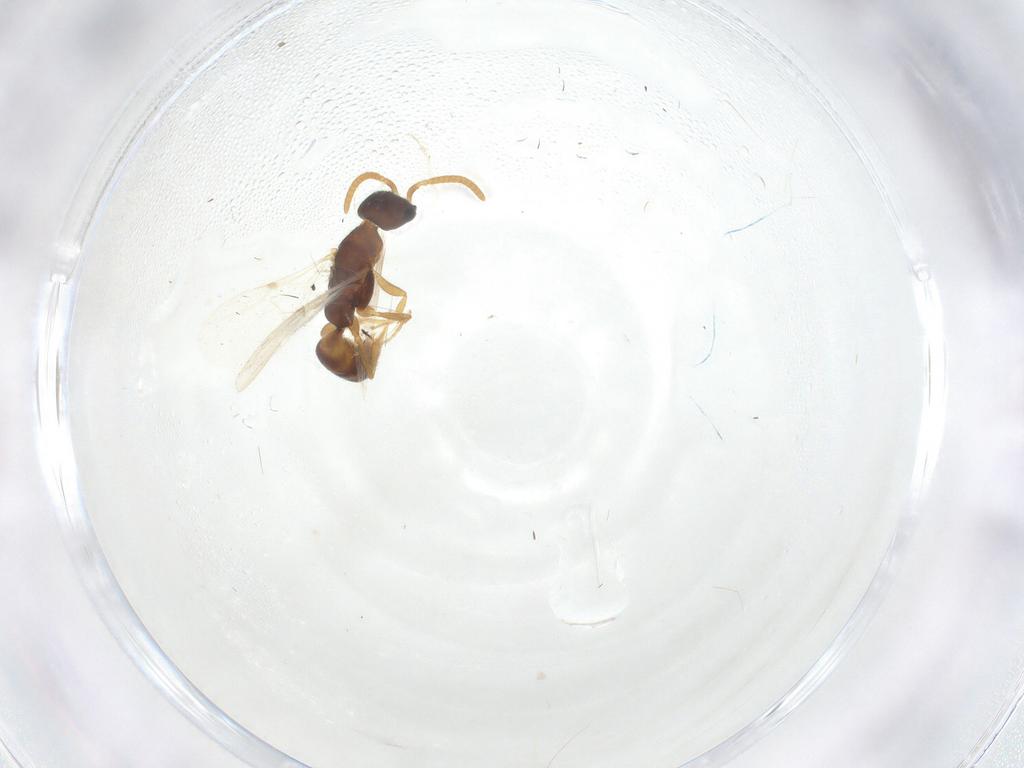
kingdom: Animalia
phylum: Arthropoda
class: Insecta
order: Hymenoptera
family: Bethylidae
